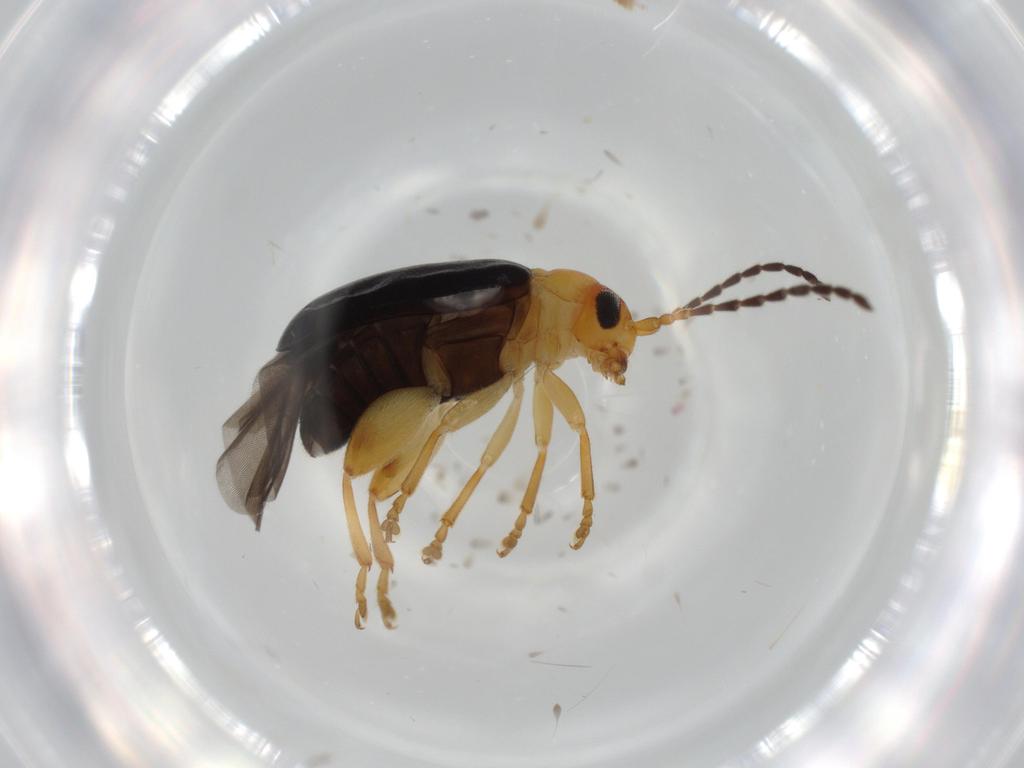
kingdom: Animalia
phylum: Arthropoda
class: Insecta
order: Coleoptera
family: Chrysomelidae
